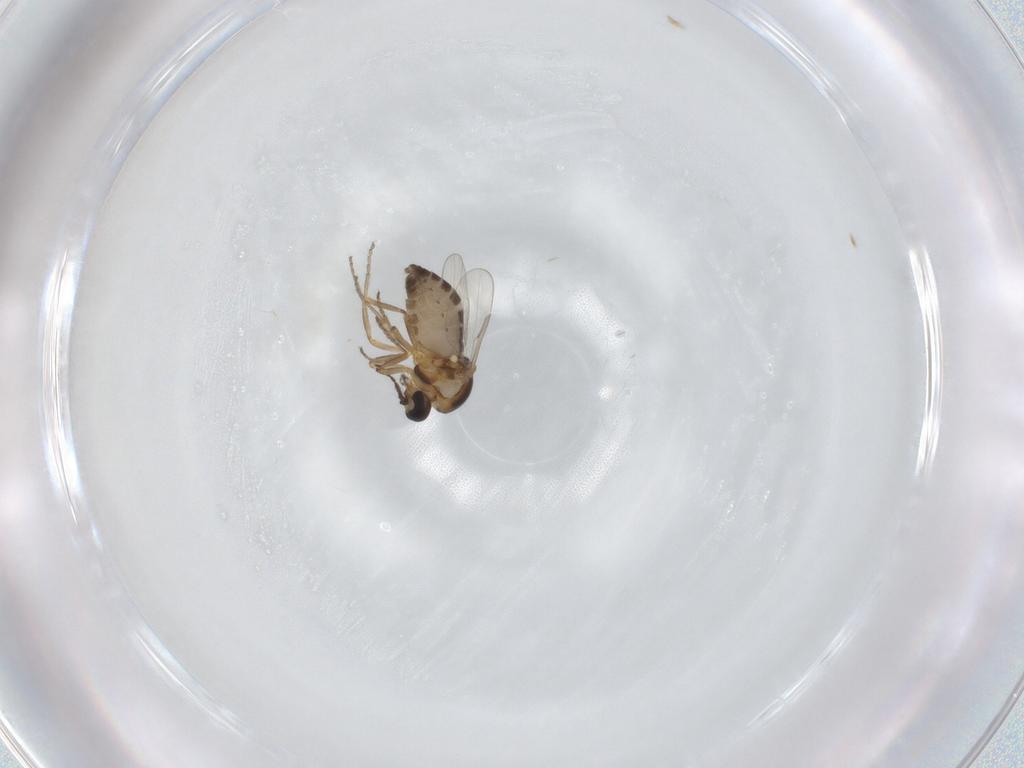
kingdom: Animalia
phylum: Arthropoda
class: Insecta
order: Diptera
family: Ceratopogonidae
